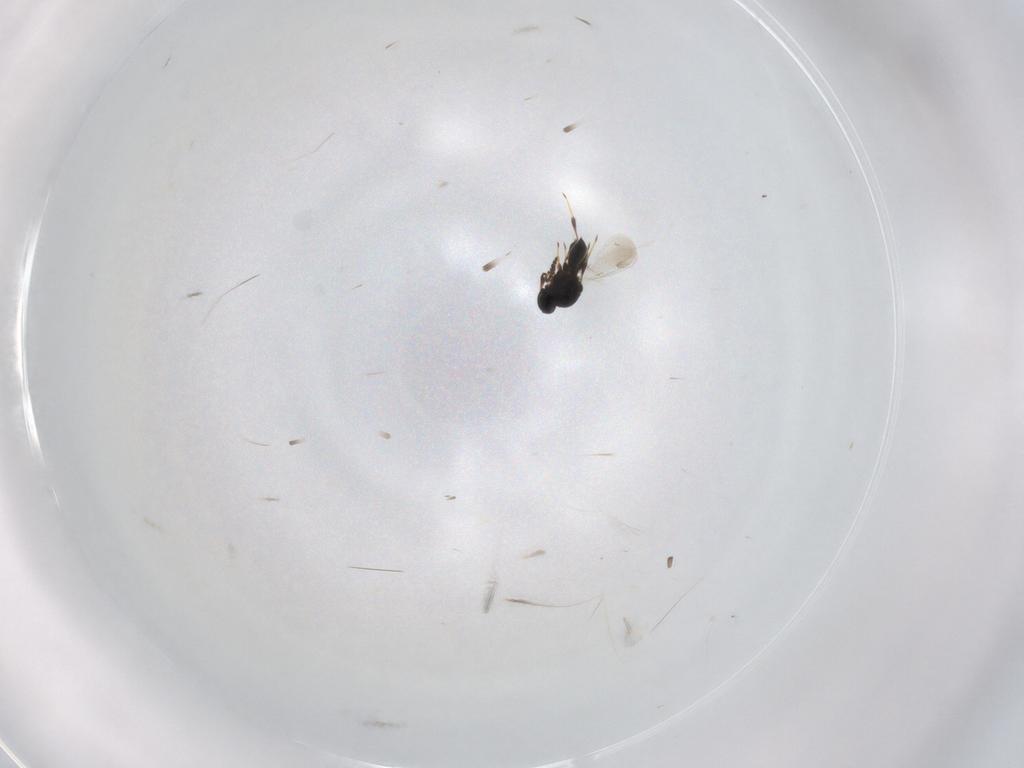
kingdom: Animalia
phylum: Arthropoda
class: Insecta
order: Hymenoptera
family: Platygastridae
